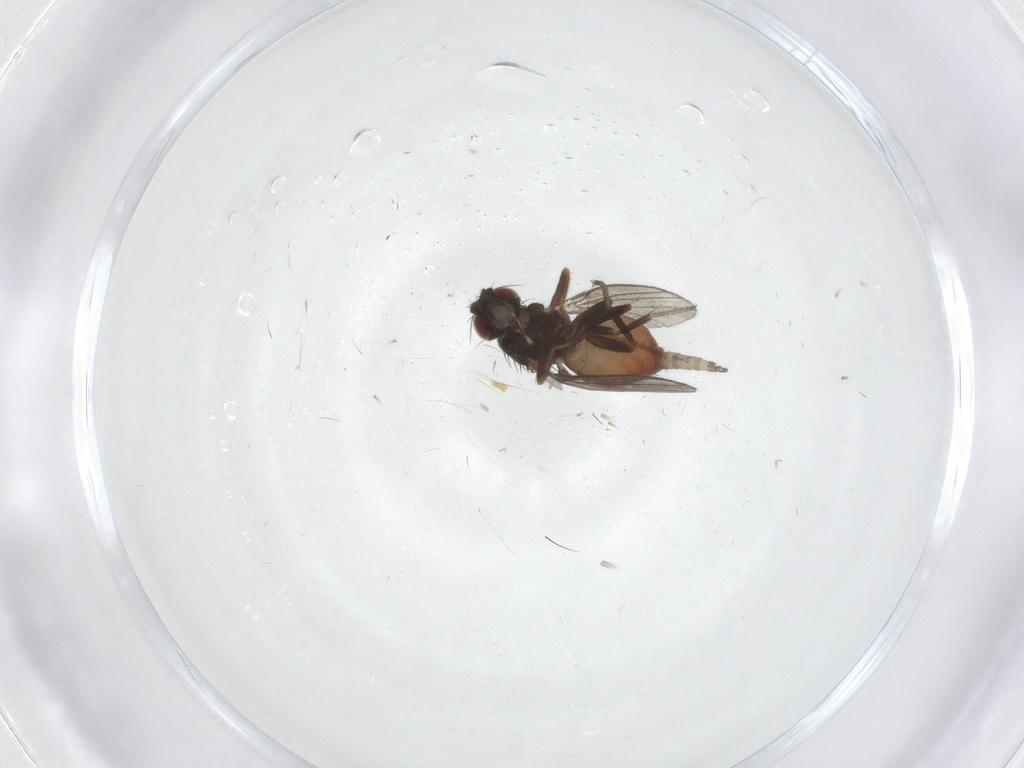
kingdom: Animalia
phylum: Arthropoda
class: Insecta
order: Diptera
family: Milichiidae
